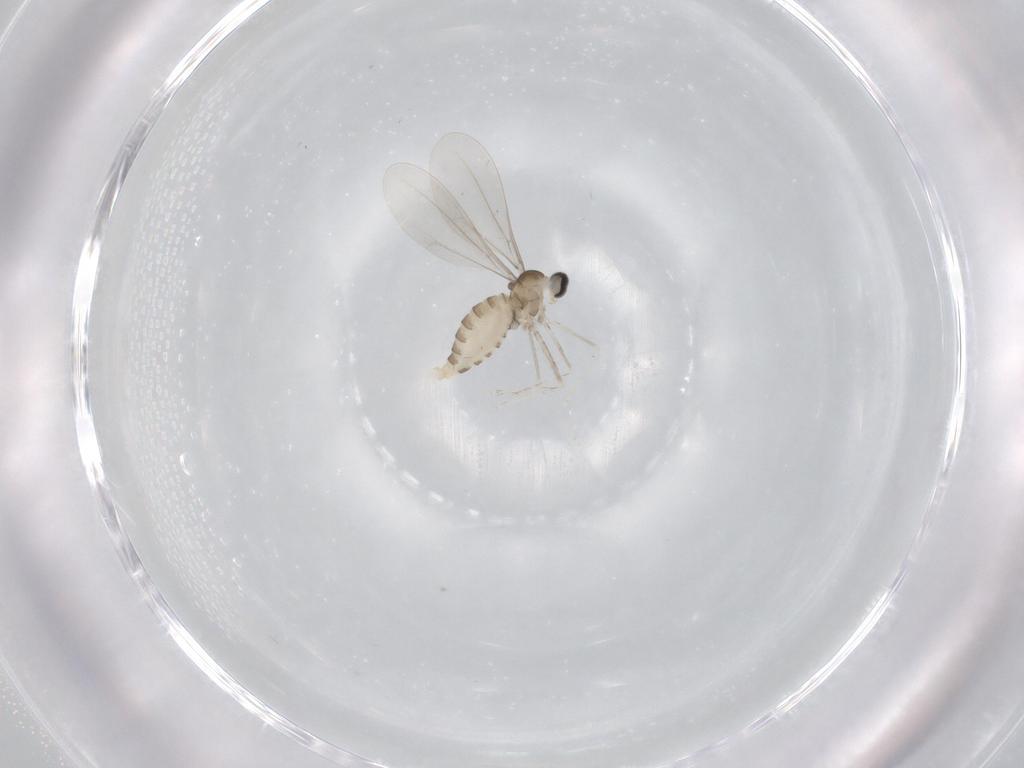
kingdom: Animalia
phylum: Arthropoda
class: Insecta
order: Diptera
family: Cecidomyiidae
